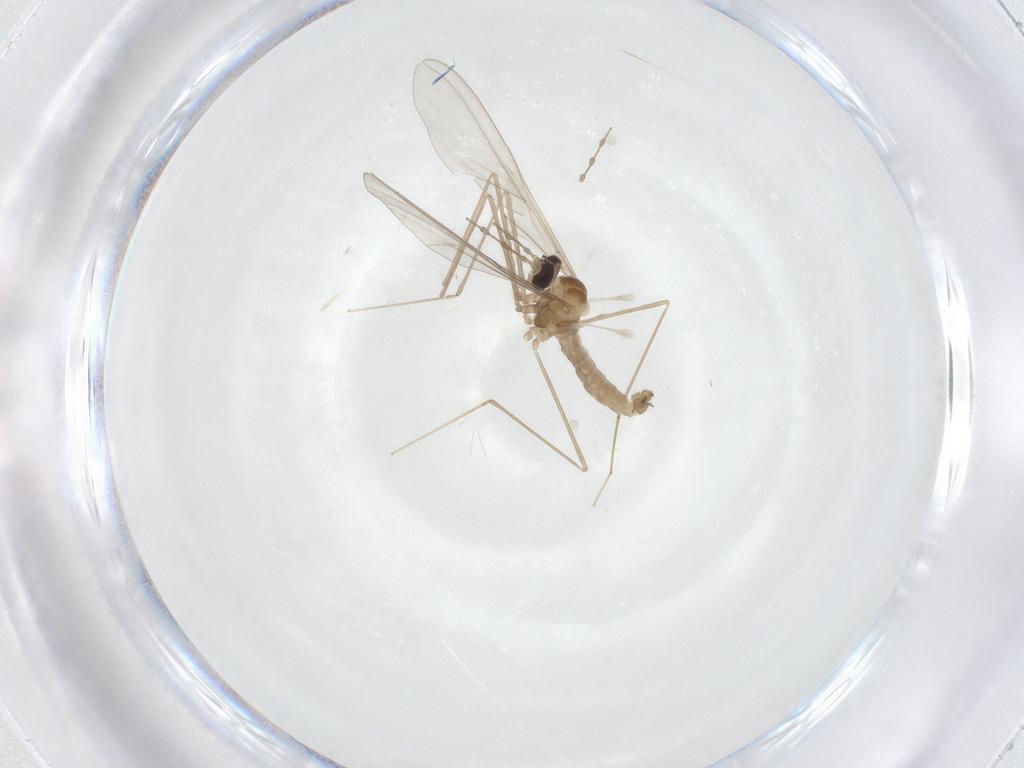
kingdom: Animalia
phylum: Arthropoda
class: Insecta
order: Diptera
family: Cecidomyiidae
